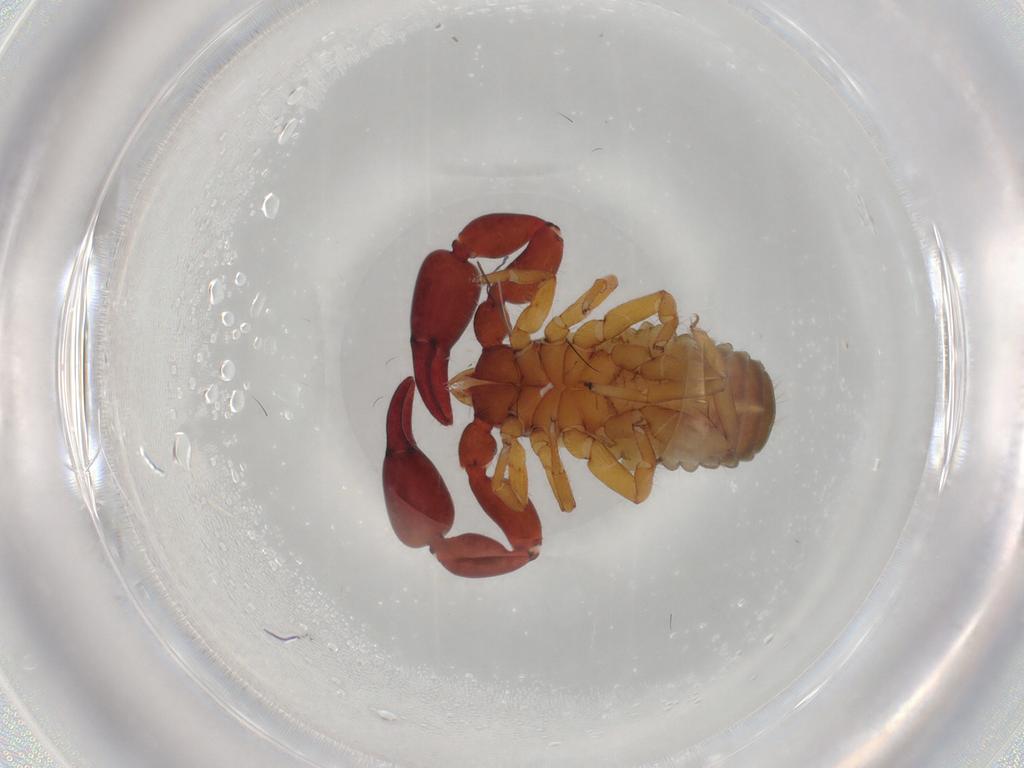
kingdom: Animalia
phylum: Arthropoda
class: Arachnida
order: Pseudoscorpiones
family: Chernetidae
